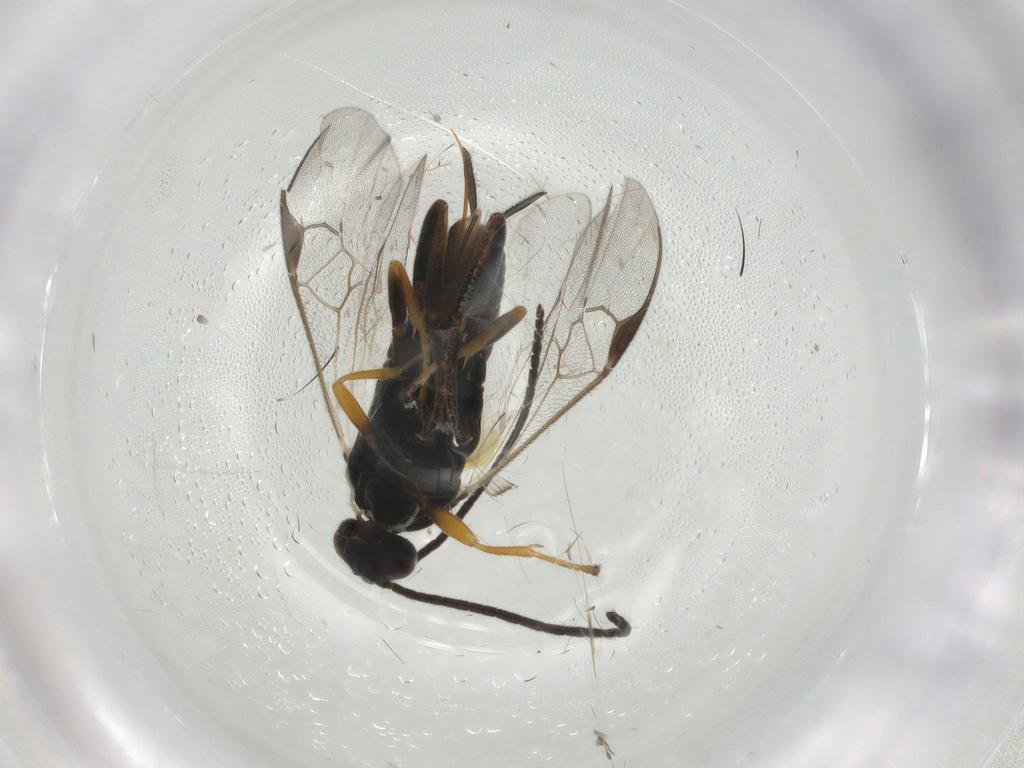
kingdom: Animalia
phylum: Arthropoda
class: Insecta
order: Hymenoptera
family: Braconidae
